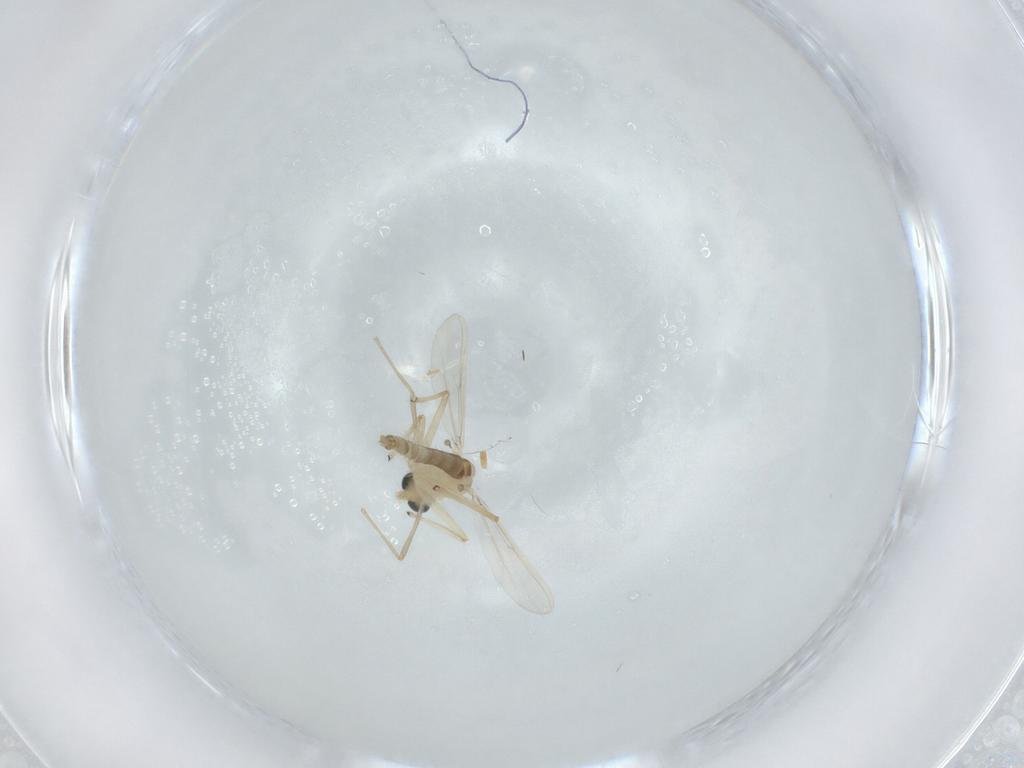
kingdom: Animalia
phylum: Arthropoda
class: Insecta
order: Diptera
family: Chironomidae
